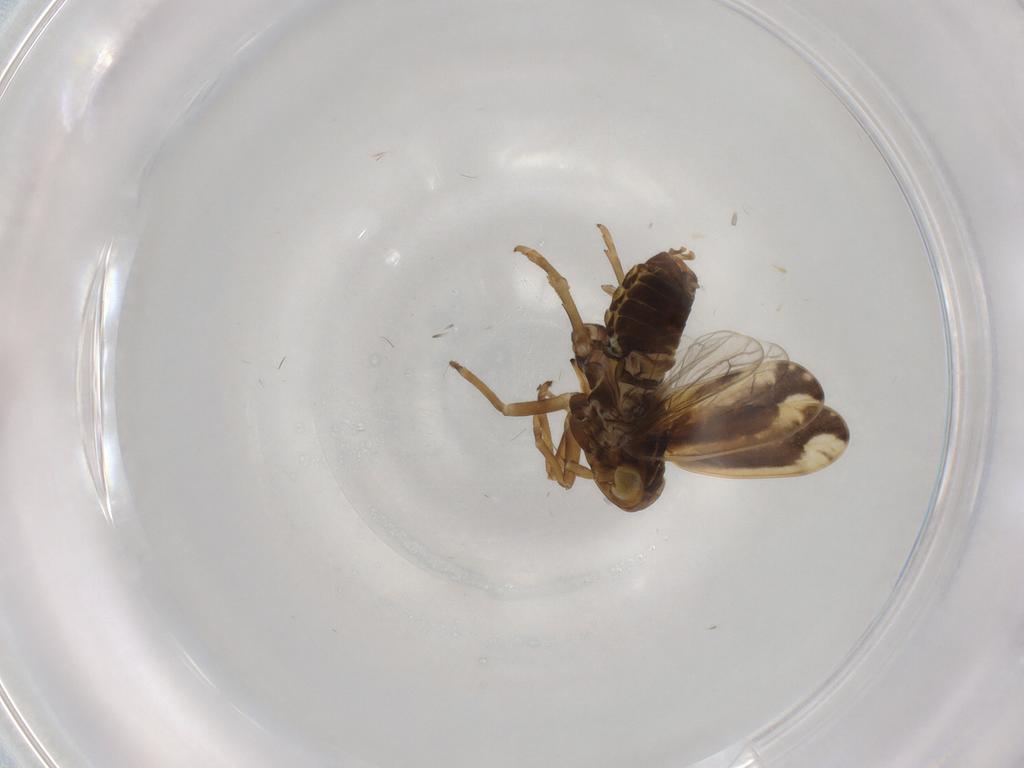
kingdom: Animalia
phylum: Arthropoda
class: Insecta
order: Hemiptera
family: Delphacidae
